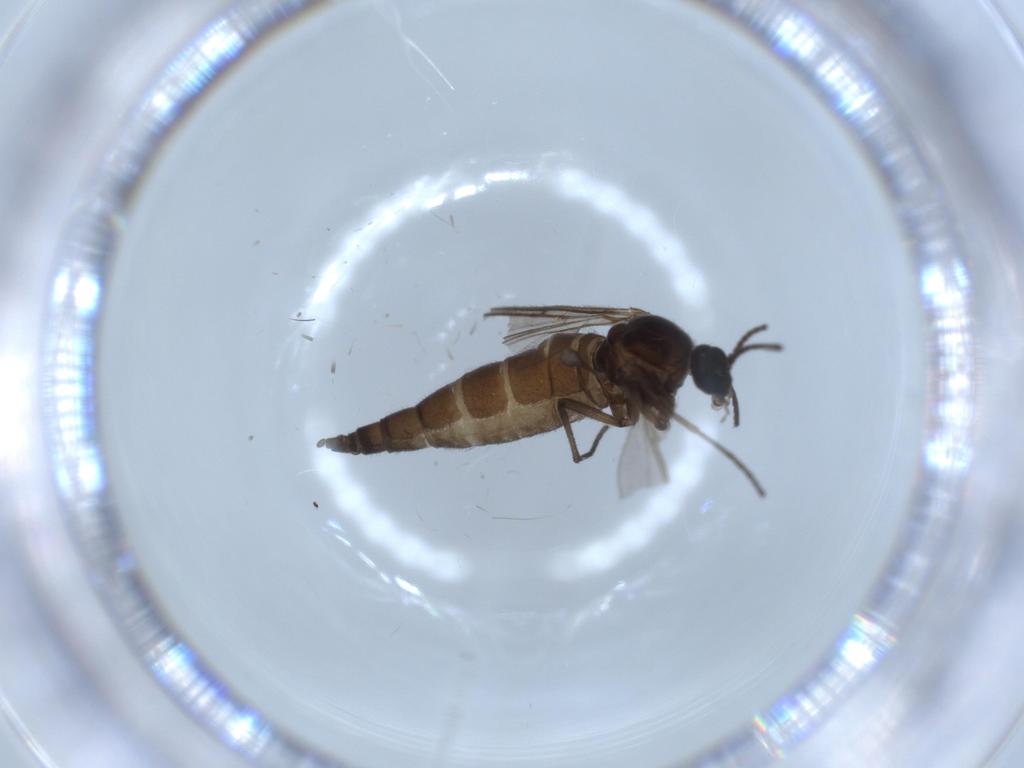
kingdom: Animalia
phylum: Arthropoda
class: Insecta
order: Diptera
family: Sciaridae
